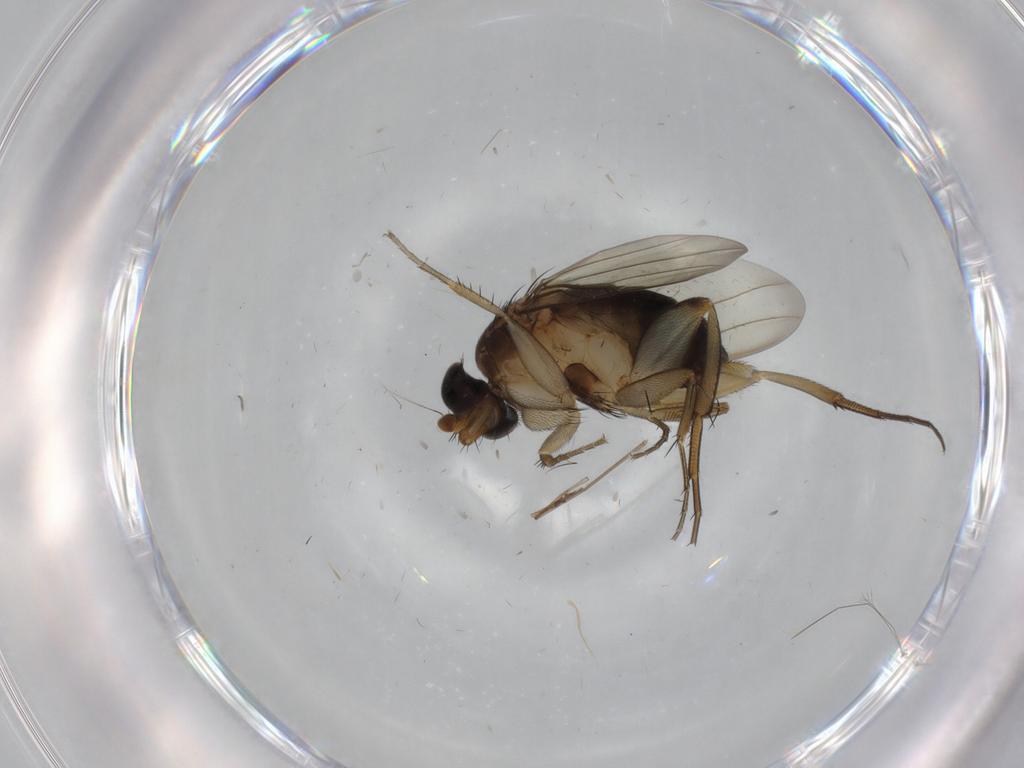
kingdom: Animalia
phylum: Arthropoda
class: Insecta
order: Diptera
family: Phoridae
